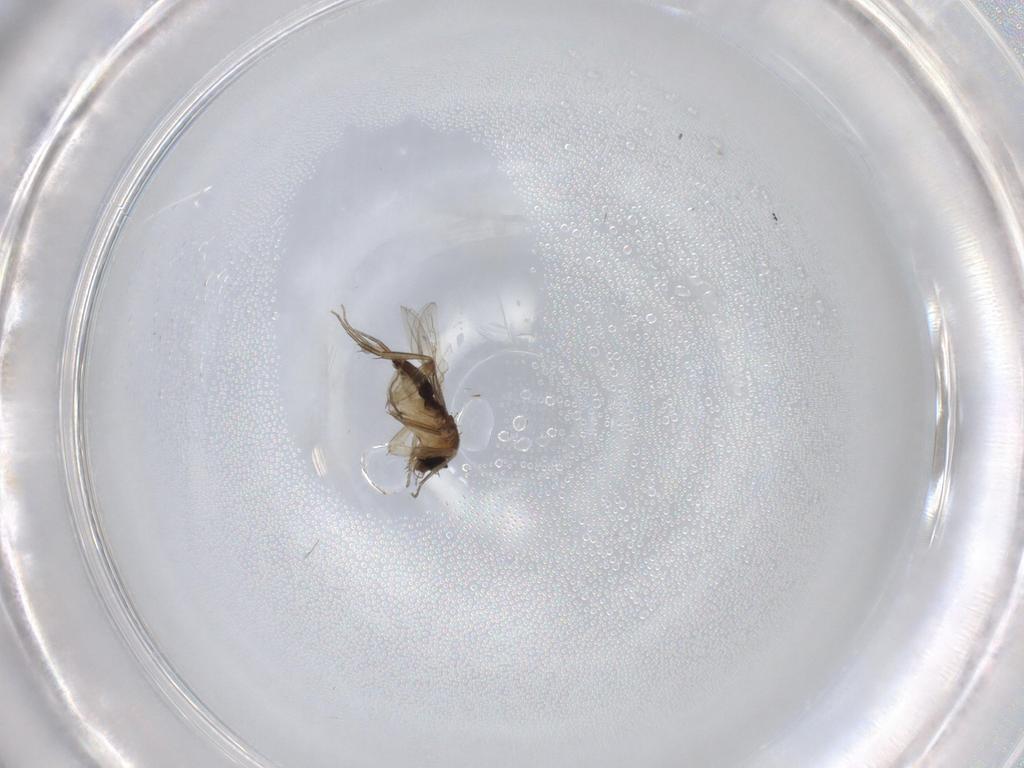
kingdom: Animalia
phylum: Arthropoda
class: Insecta
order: Diptera
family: Phoridae
